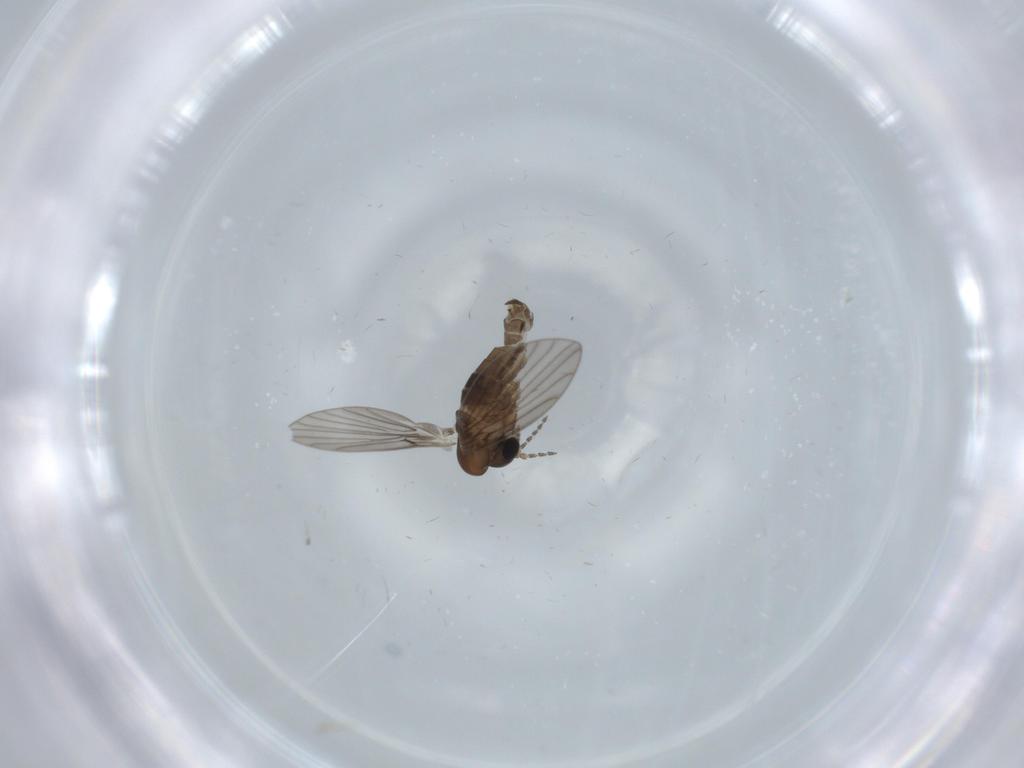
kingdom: Animalia
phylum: Arthropoda
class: Insecta
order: Diptera
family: Psychodidae
